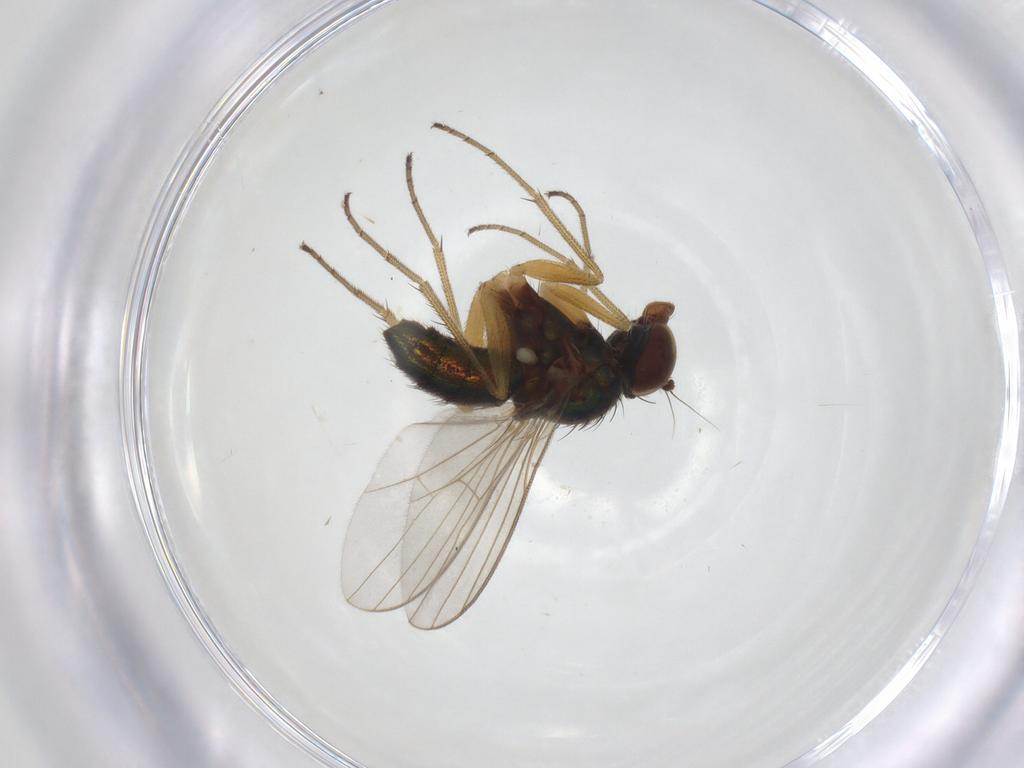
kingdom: Animalia
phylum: Arthropoda
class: Insecta
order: Diptera
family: Dolichopodidae
